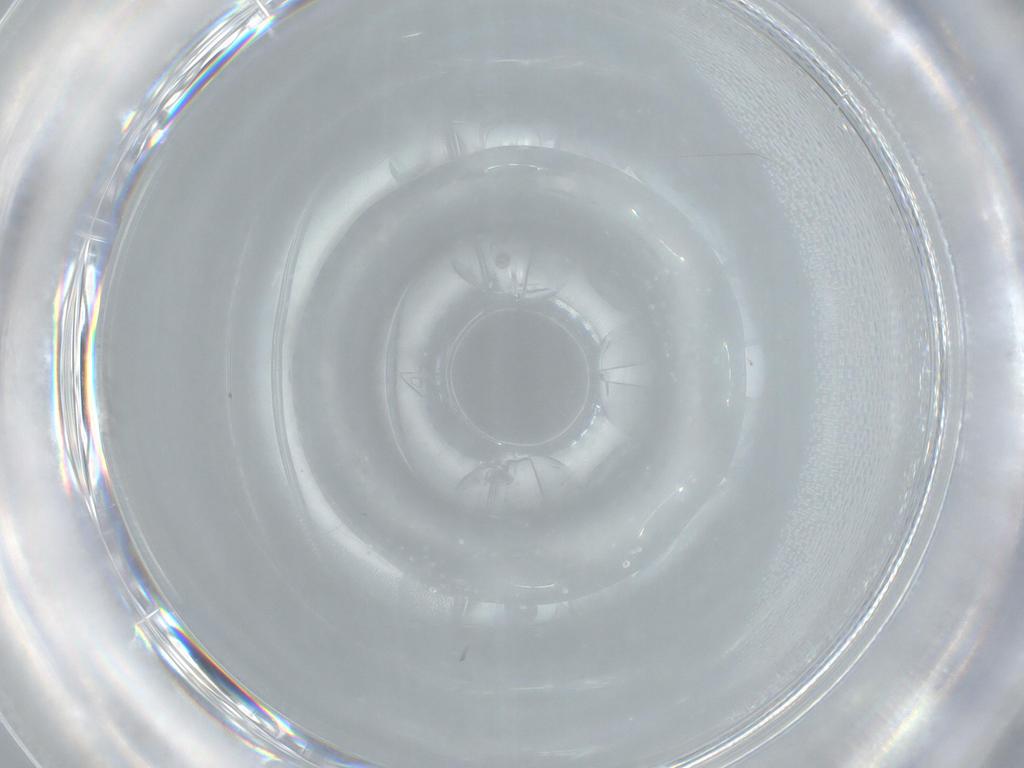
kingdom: Animalia
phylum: Arthropoda
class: Insecta
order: Diptera
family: Cecidomyiidae
